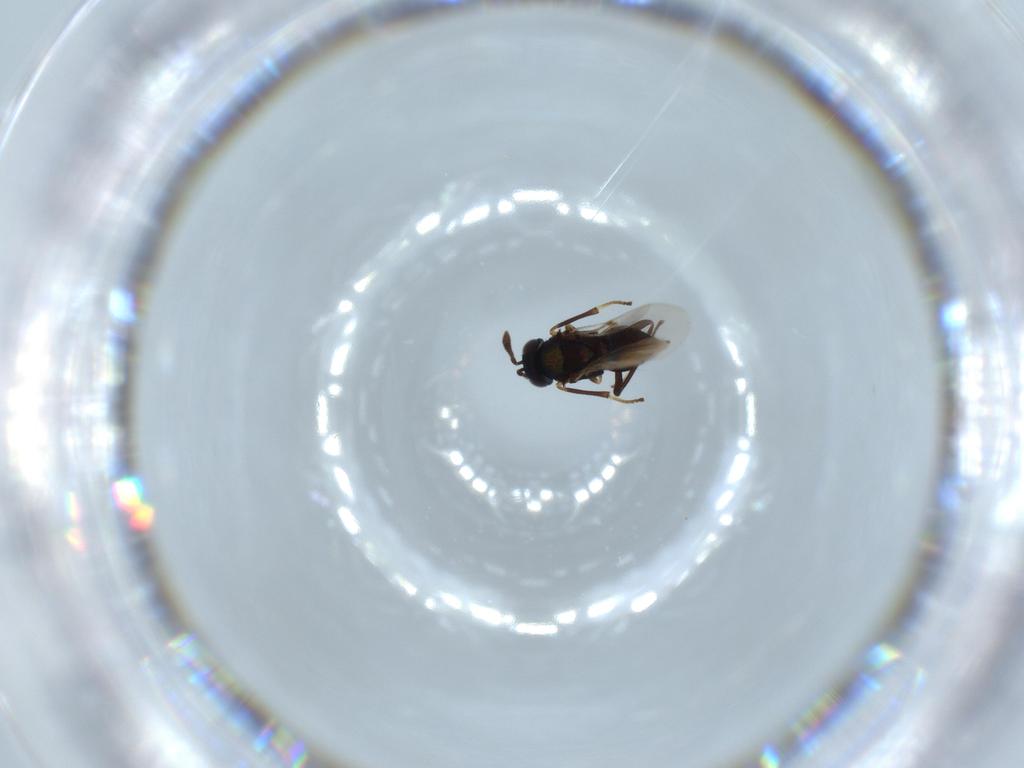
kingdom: Animalia
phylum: Arthropoda
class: Insecta
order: Hymenoptera
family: Encyrtidae
